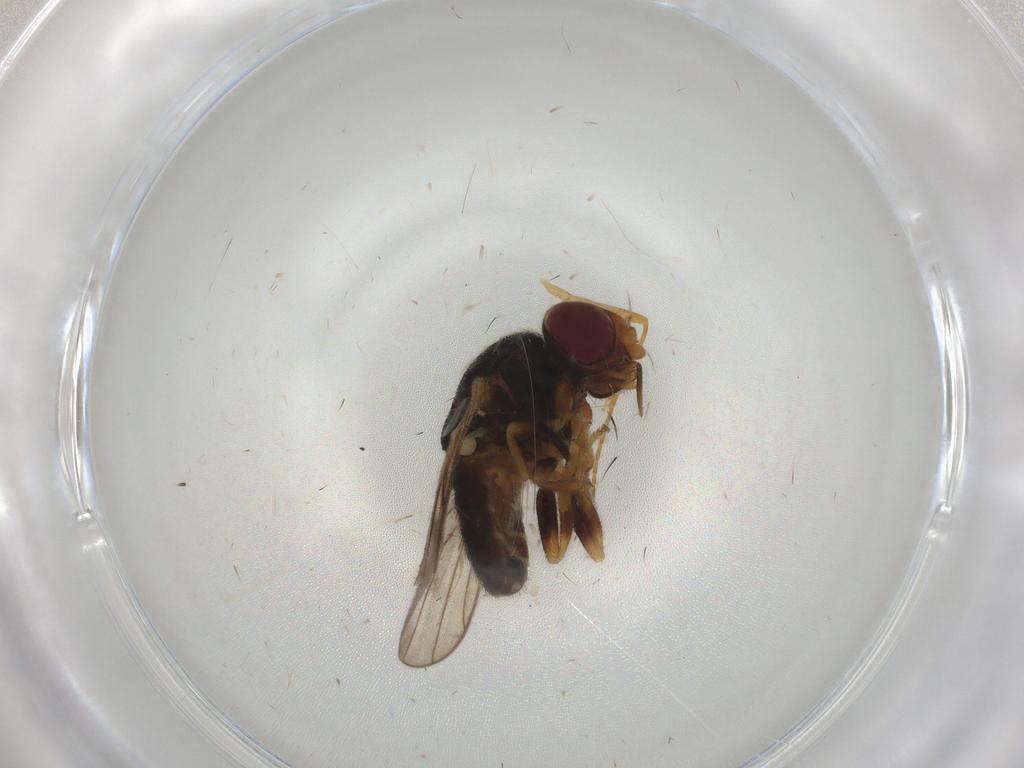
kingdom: Animalia
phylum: Arthropoda
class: Insecta
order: Diptera
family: Chloropidae
